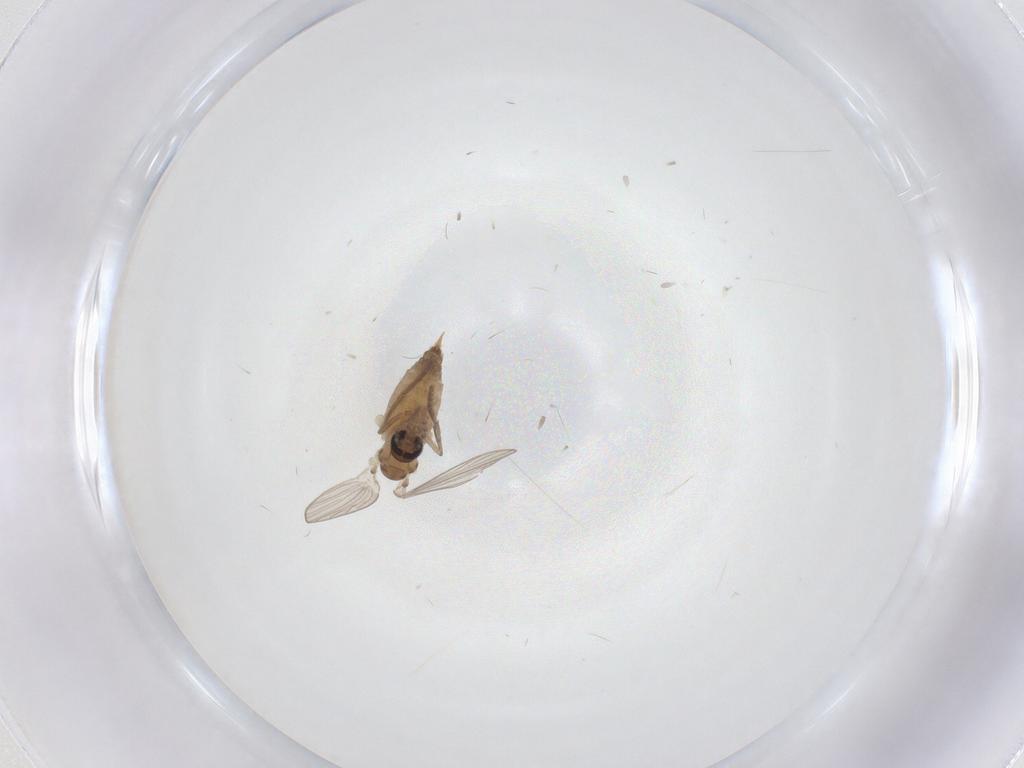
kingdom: Animalia
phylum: Arthropoda
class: Insecta
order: Diptera
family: Psychodidae
